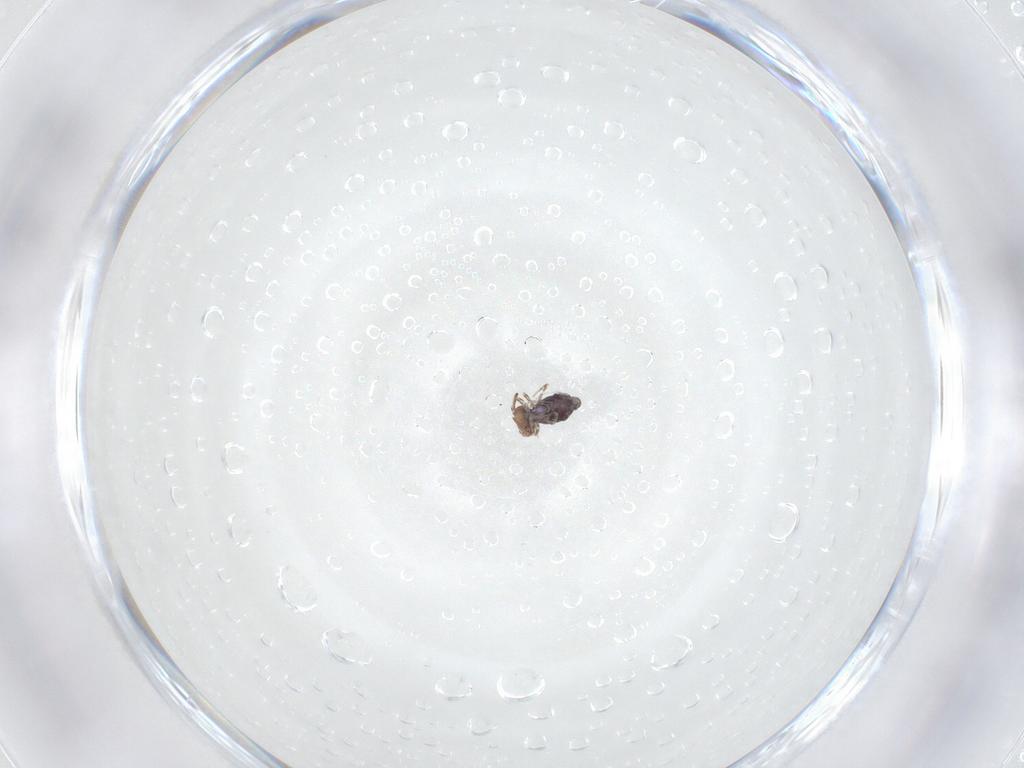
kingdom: Animalia
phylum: Arthropoda
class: Collembola
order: Symphypleona
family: Bourletiellidae
